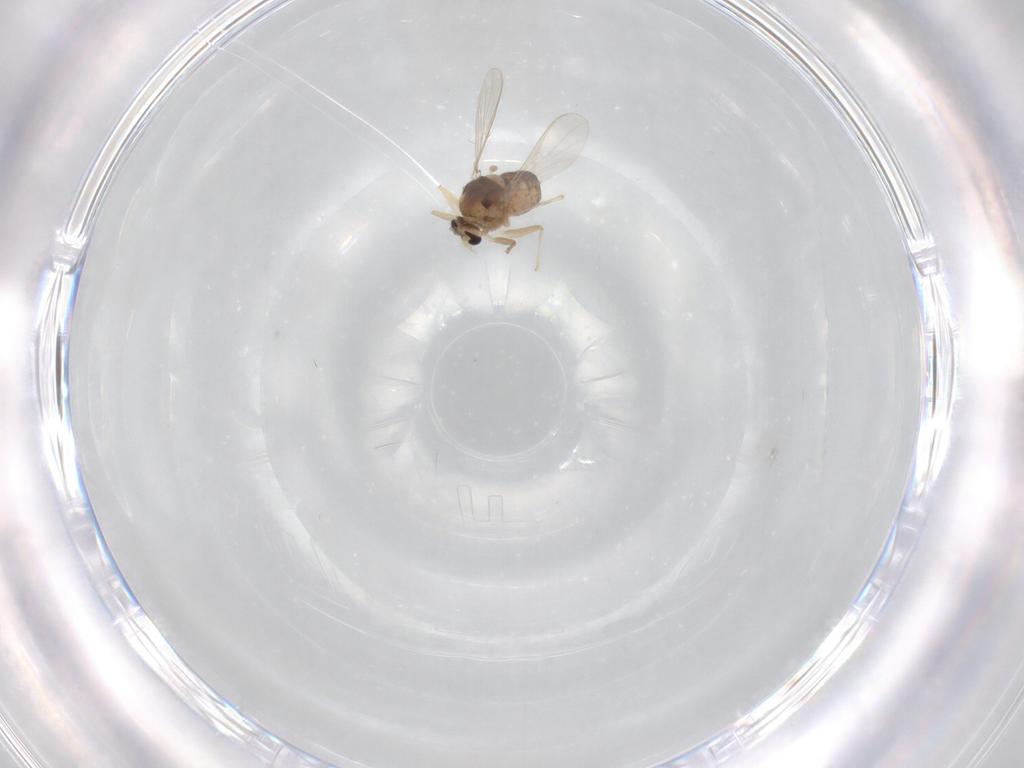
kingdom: Animalia
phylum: Arthropoda
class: Insecta
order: Diptera
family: Chironomidae
